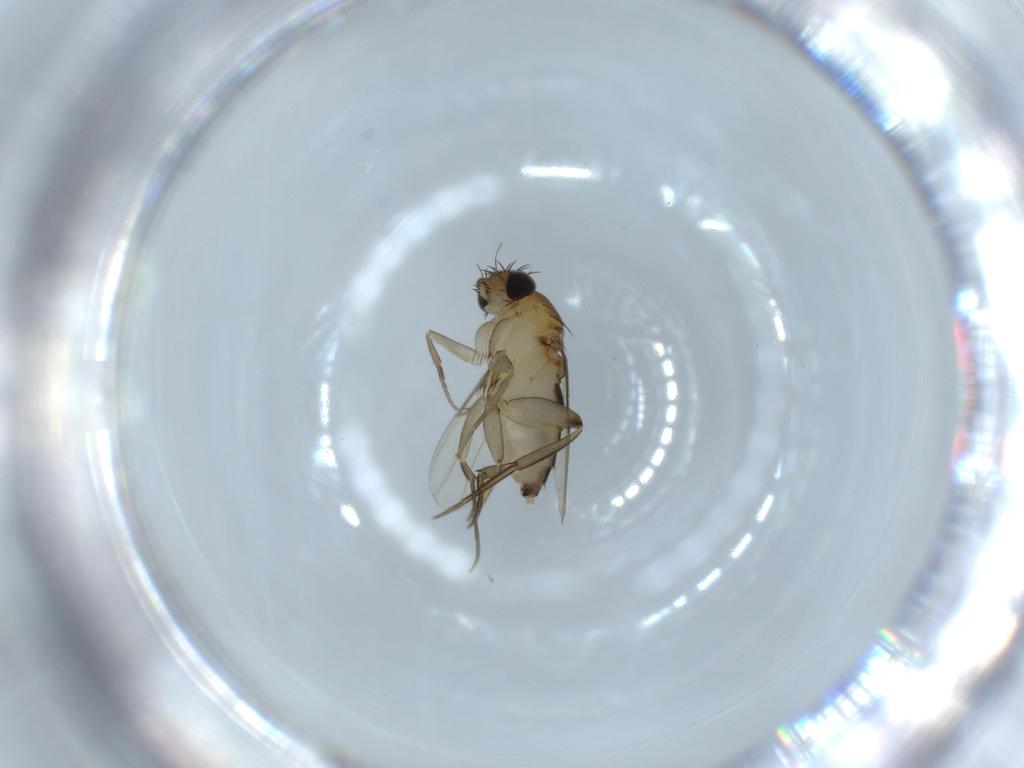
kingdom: Animalia
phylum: Arthropoda
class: Insecta
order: Diptera
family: Phoridae
